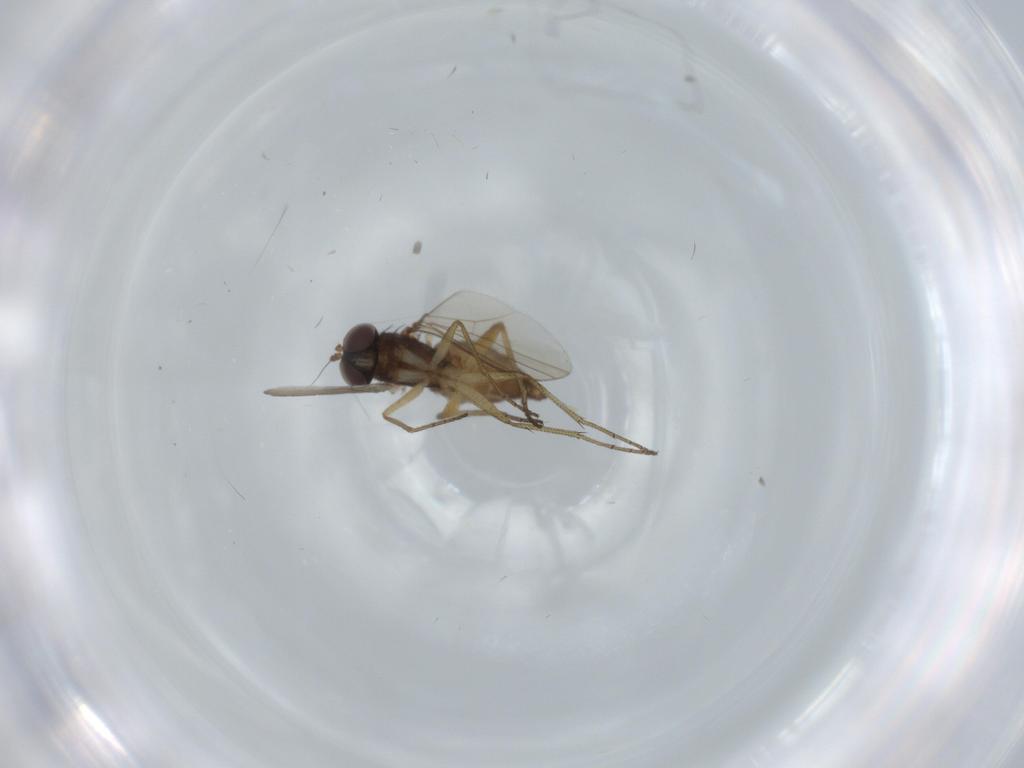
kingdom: Animalia
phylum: Arthropoda
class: Insecta
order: Diptera
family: Dolichopodidae
